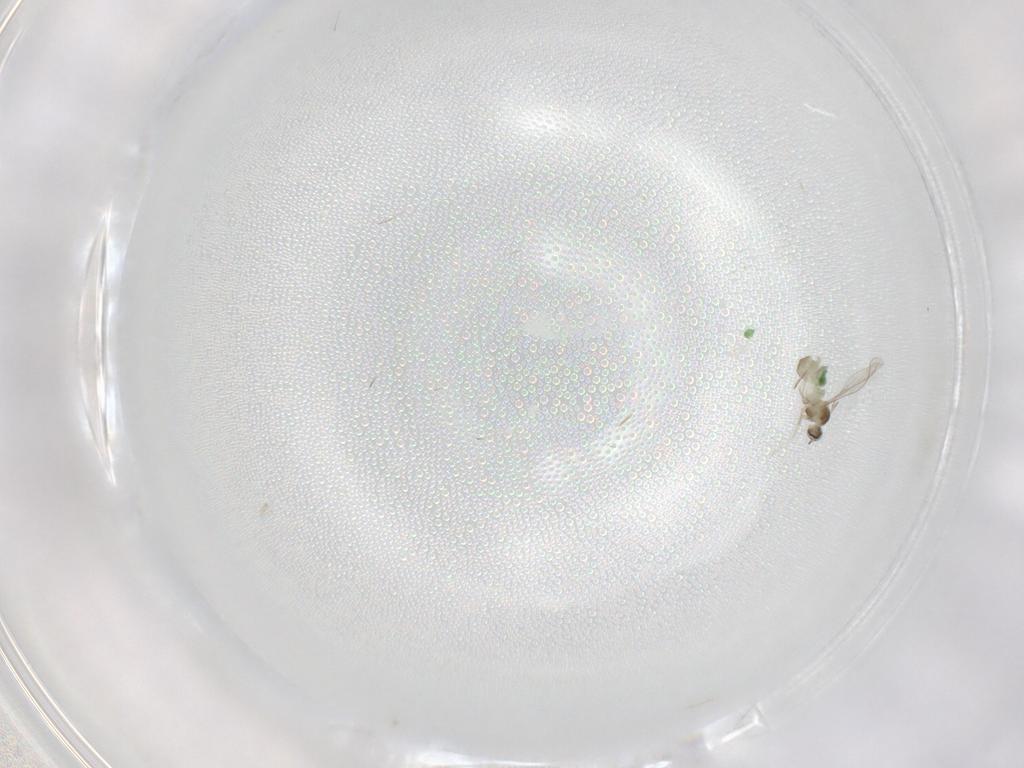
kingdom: Animalia
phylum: Arthropoda
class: Insecta
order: Diptera
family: Cecidomyiidae
